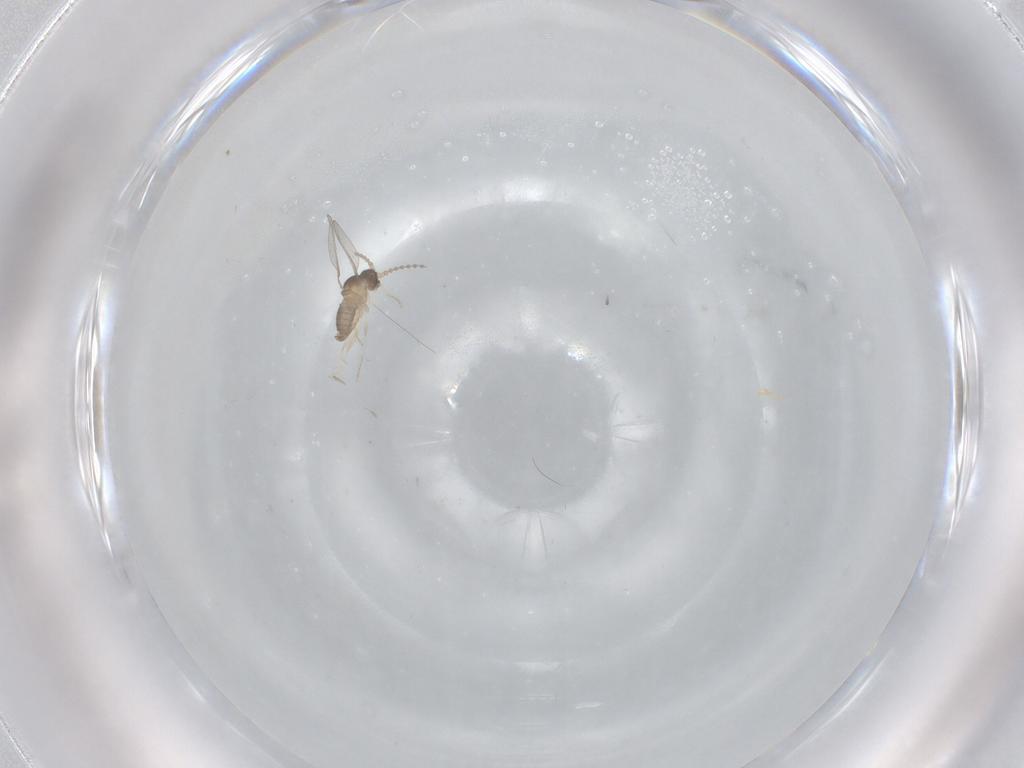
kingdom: Animalia
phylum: Arthropoda
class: Insecta
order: Diptera
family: Cecidomyiidae
